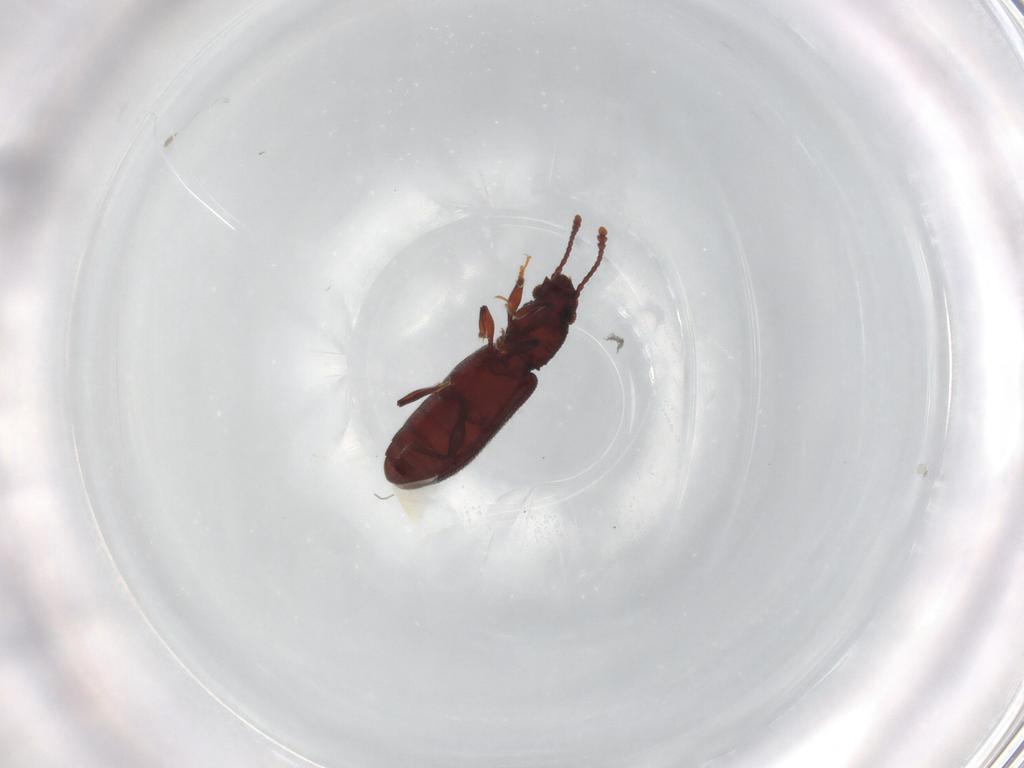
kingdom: Animalia
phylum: Arthropoda
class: Insecta
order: Coleoptera
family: Silvanidae
